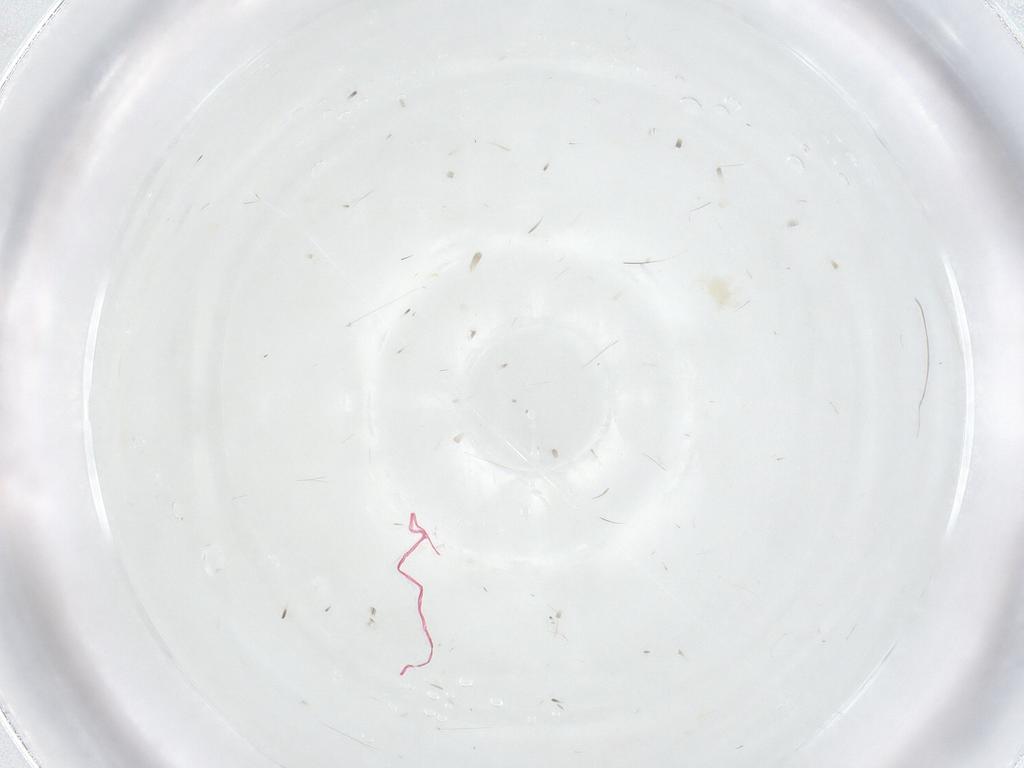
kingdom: Animalia
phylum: Arthropoda
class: Arachnida
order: Trombidiformes
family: Anystidae
